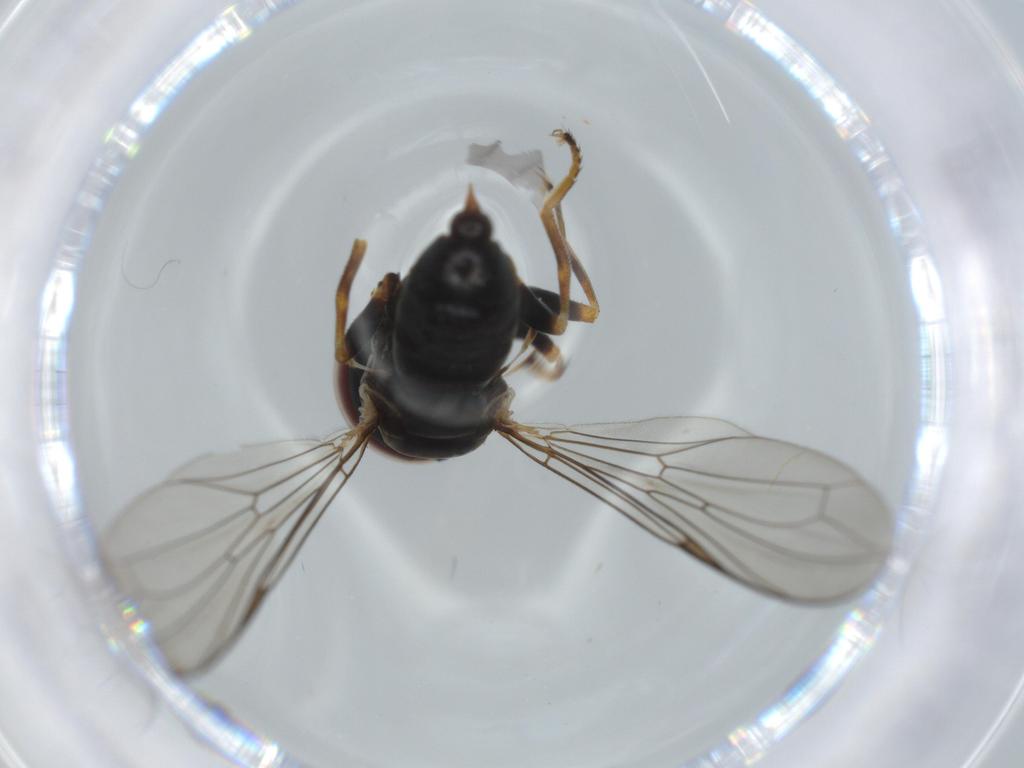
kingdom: Animalia
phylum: Arthropoda
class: Insecta
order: Diptera
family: Pipunculidae
